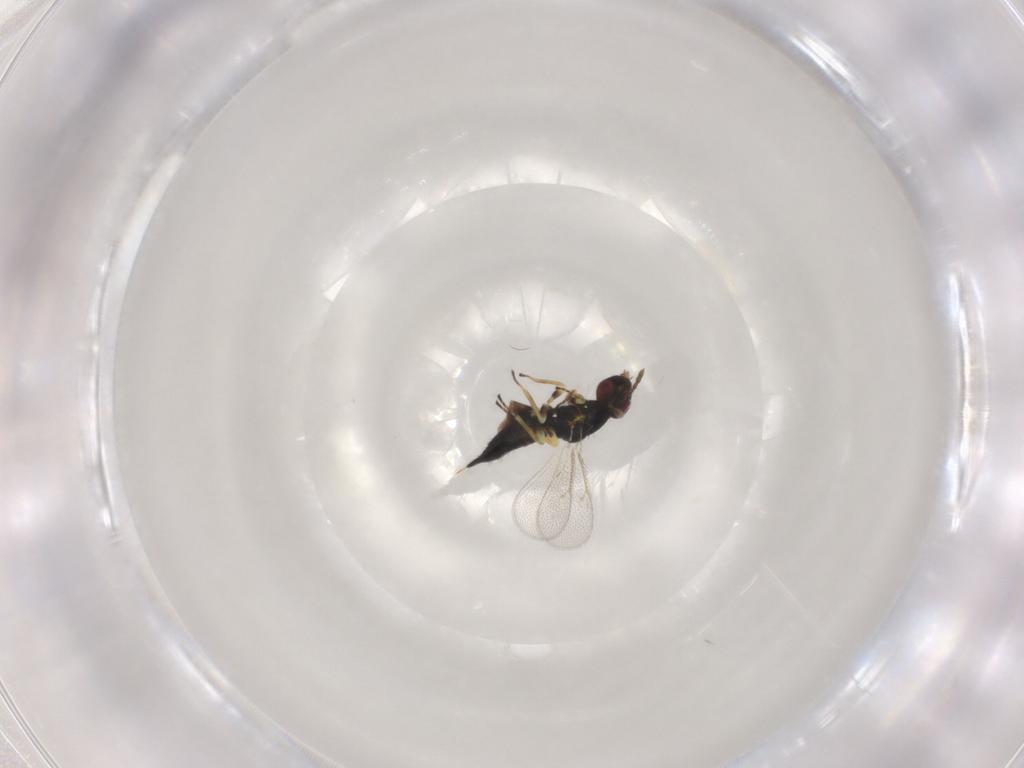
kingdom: Animalia
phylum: Arthropoda
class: Insecta
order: Hymenoptera
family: Eulophidae
